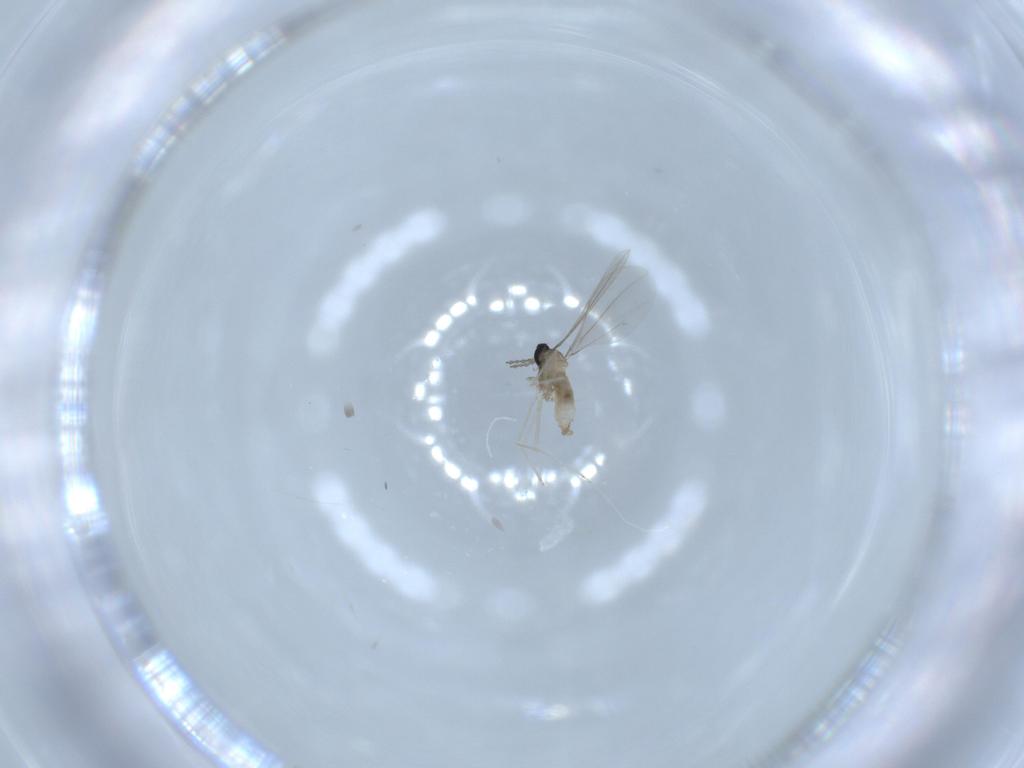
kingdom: Animalia
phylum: Arthropoda
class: Insecta
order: Diptera
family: Cecidomyiidae
